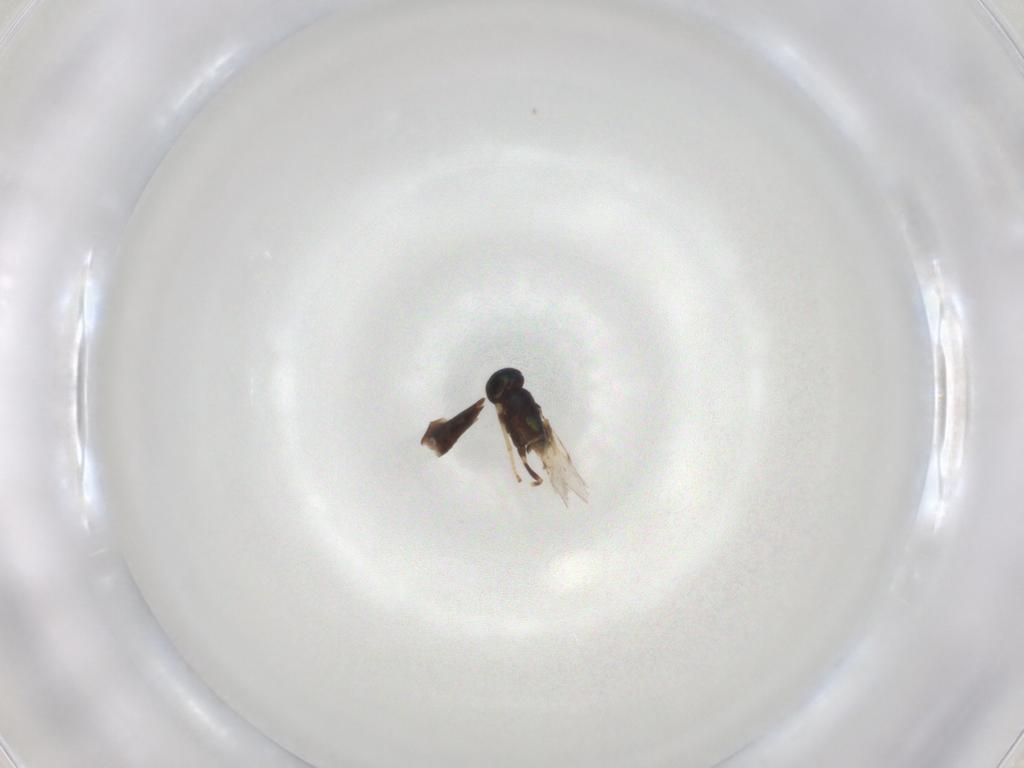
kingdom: Animalia
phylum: Arthropoda
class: Insecta
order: Hymenoptera
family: Encyrtidae
